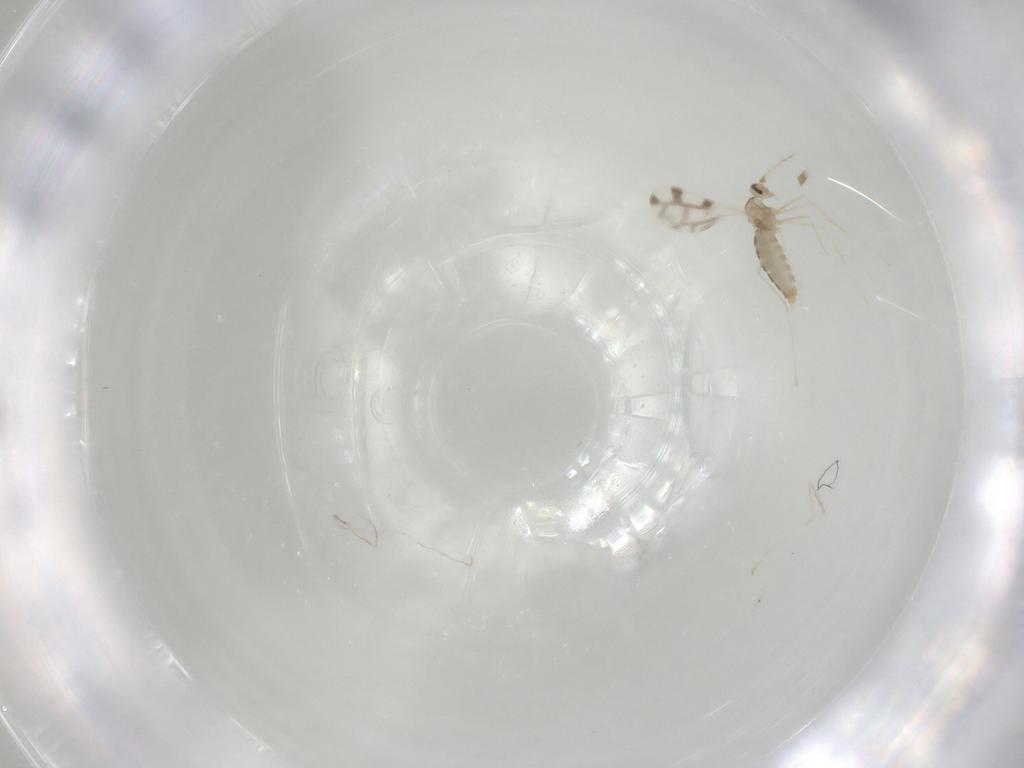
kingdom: Animalia
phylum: Arthropoda
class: Insecta
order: Diptera
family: Cecidomyiidae
